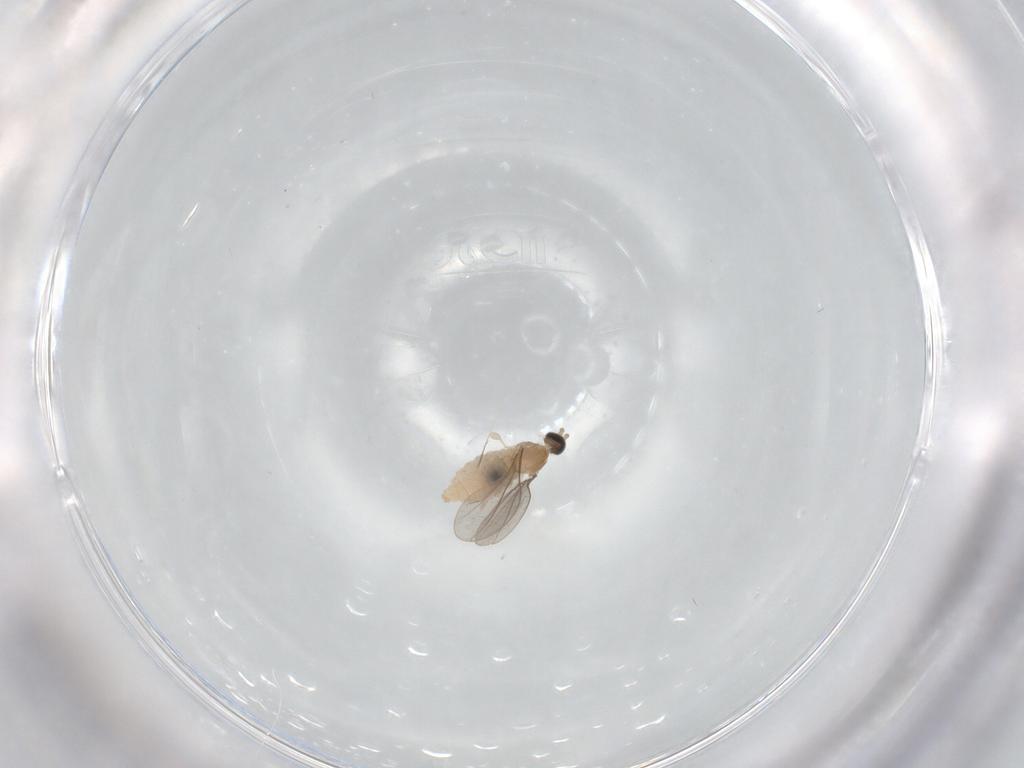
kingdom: Animalia
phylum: Arthropoda
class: Insecta
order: Diptera
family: Cecidomyiidae
